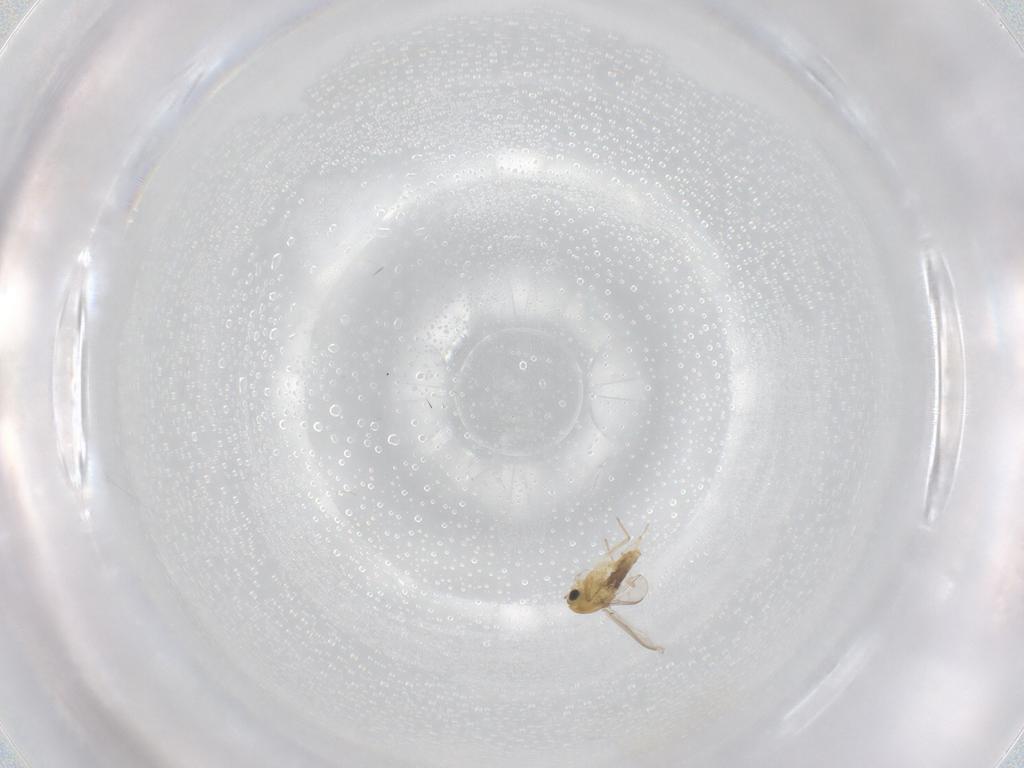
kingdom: Animalia
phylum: Arthropoda
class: Insecta
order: Diptera
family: Chironomidae
